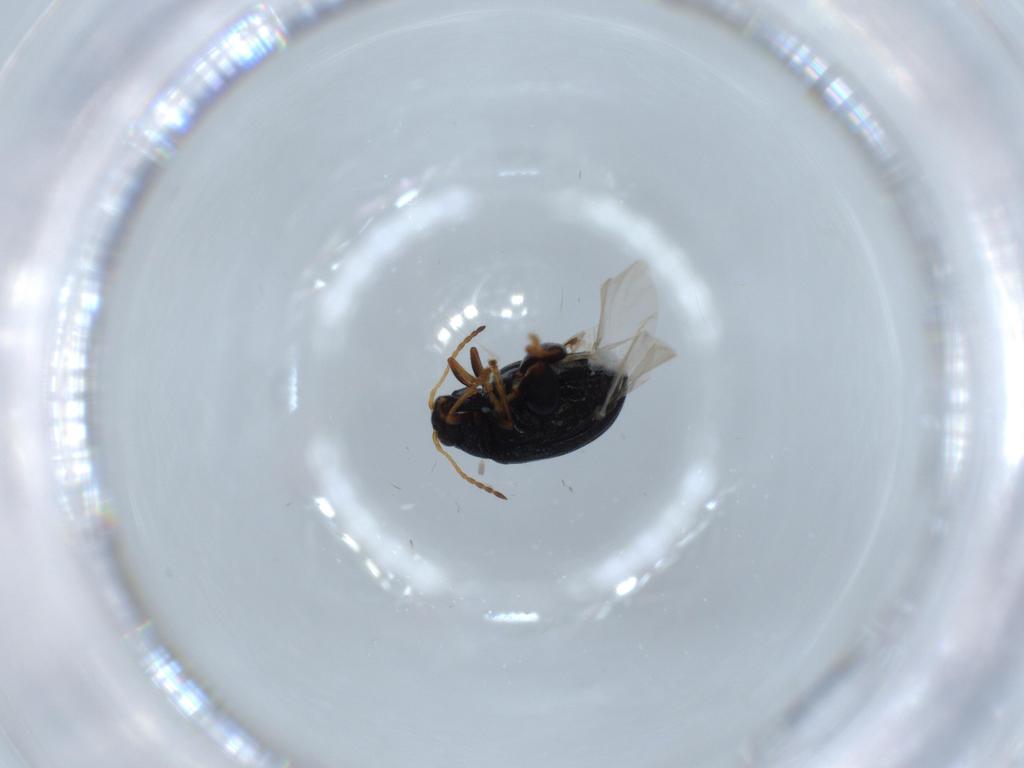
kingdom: Animalia
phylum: Arthropoda
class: Insecta
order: Coleoptera
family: Chrysomelidae
